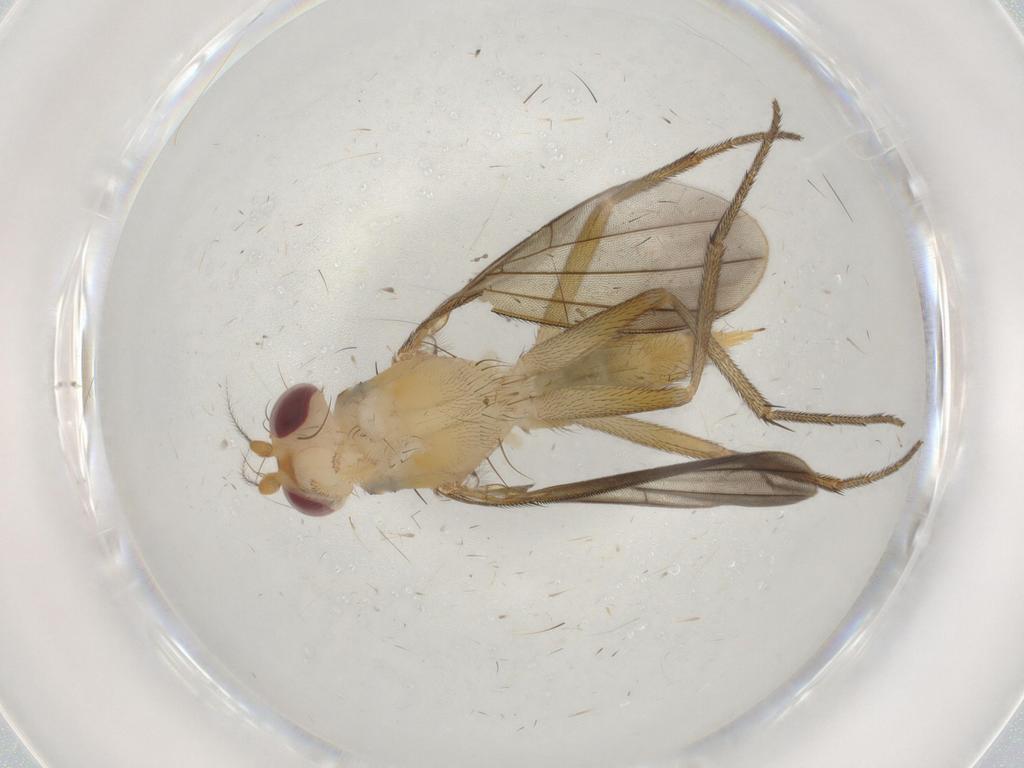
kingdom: Animalia
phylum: Arthropoda
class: Insecta
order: Diptera
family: Clusiidae
